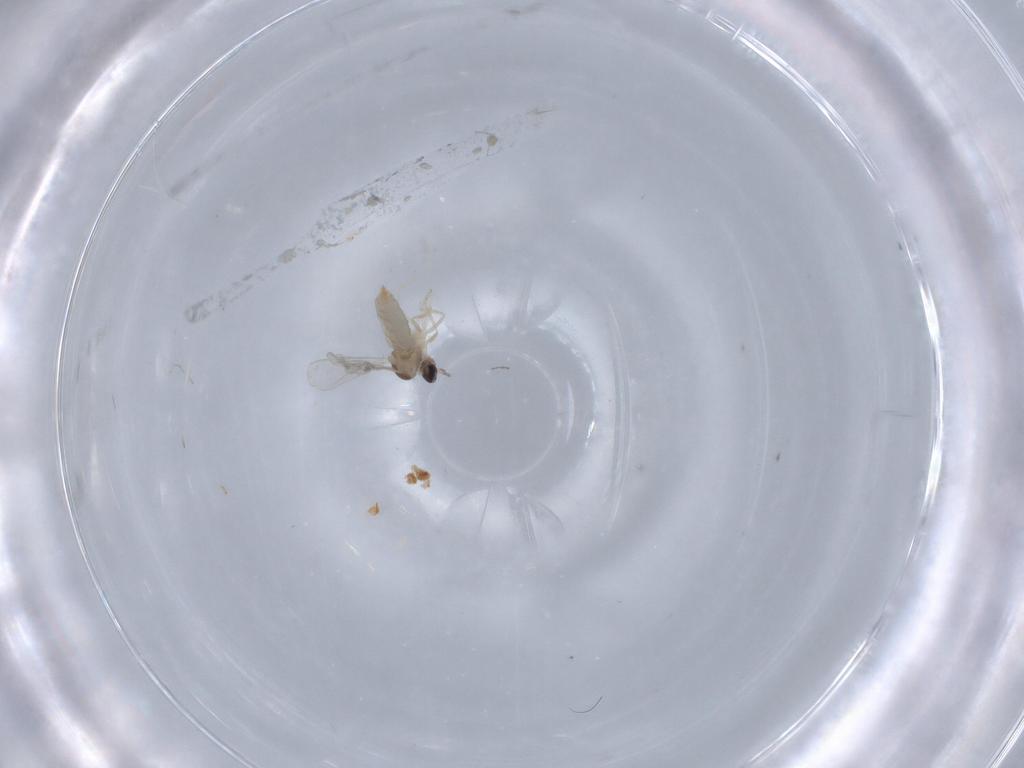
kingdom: Animalia
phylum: Arthropoda
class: Insecta
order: Diptera
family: Chironomidae
